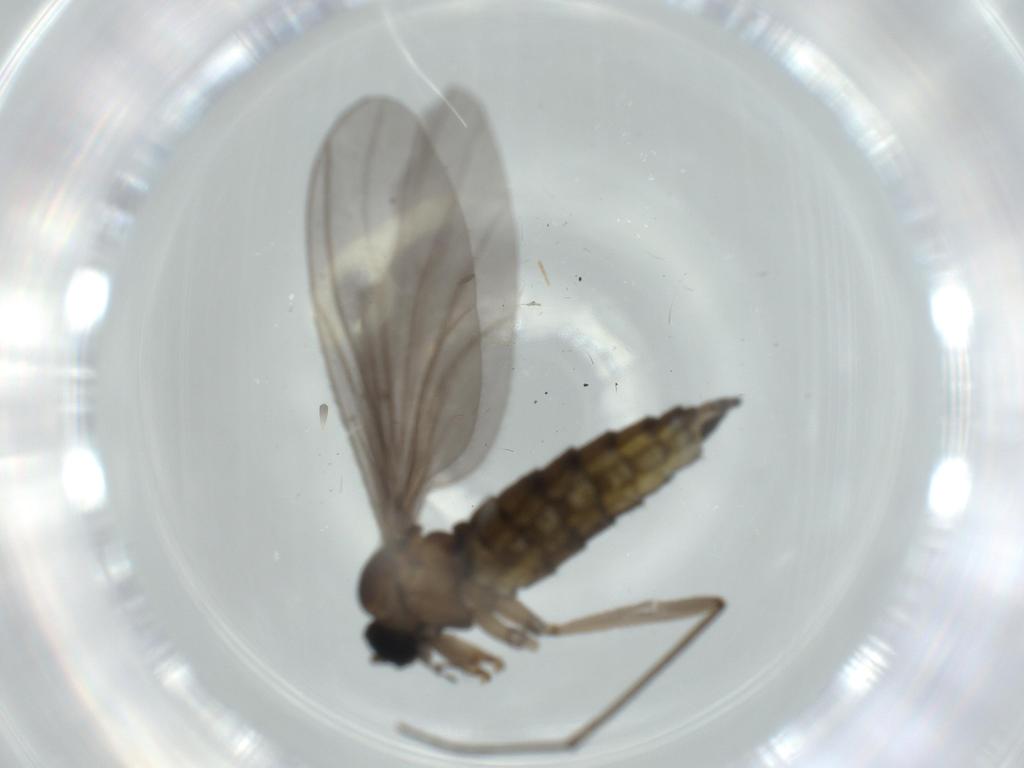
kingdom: Animalia
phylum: Arthropoda
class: Insecta
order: Diptera
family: Sciaridae
